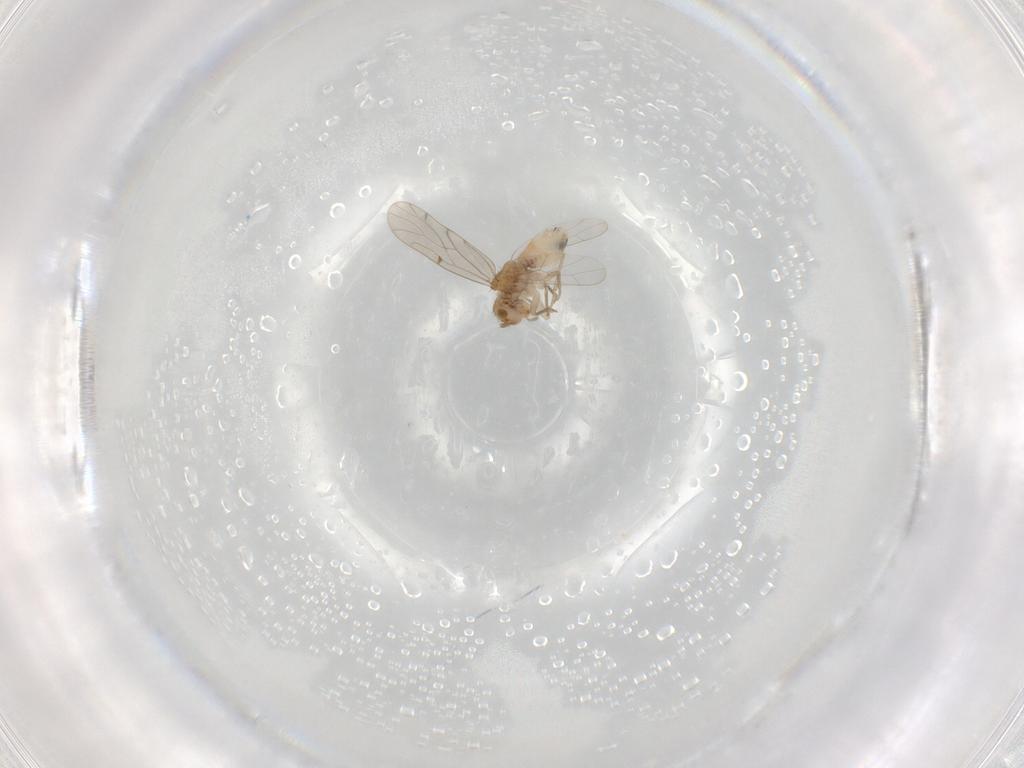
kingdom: Animalia
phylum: Arthropoda
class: Insecta
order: Psocodea
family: Ectopsocidae
